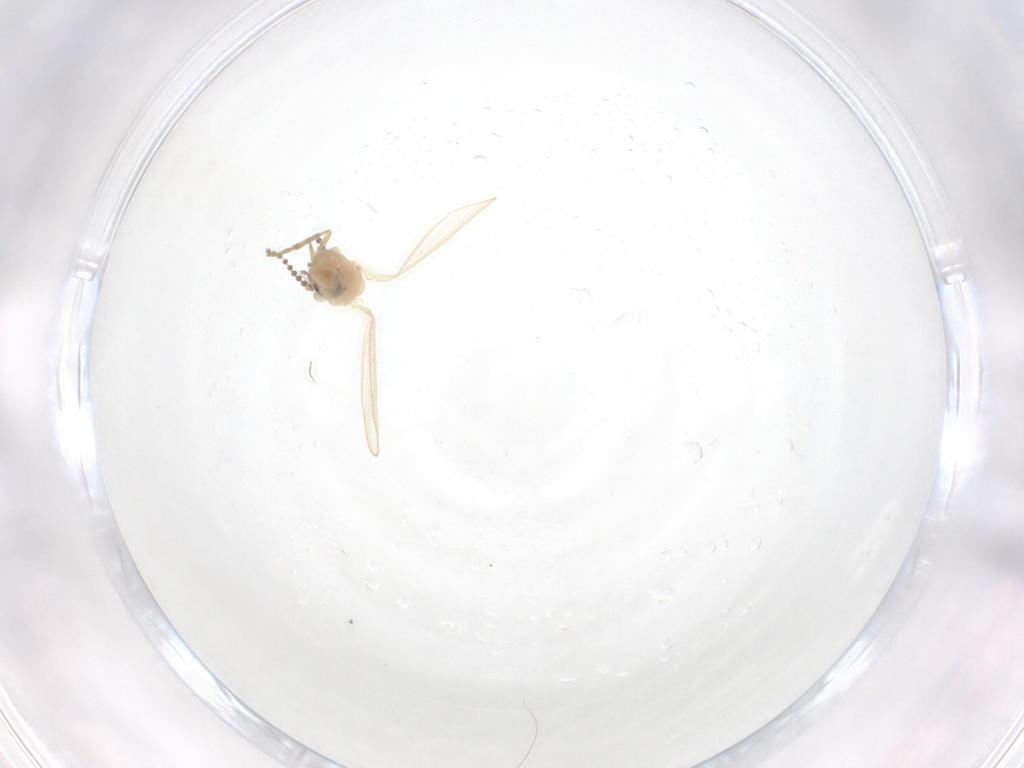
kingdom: Animalia
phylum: Arthropoda
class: Insecta
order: Diptera
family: Psychodidae
